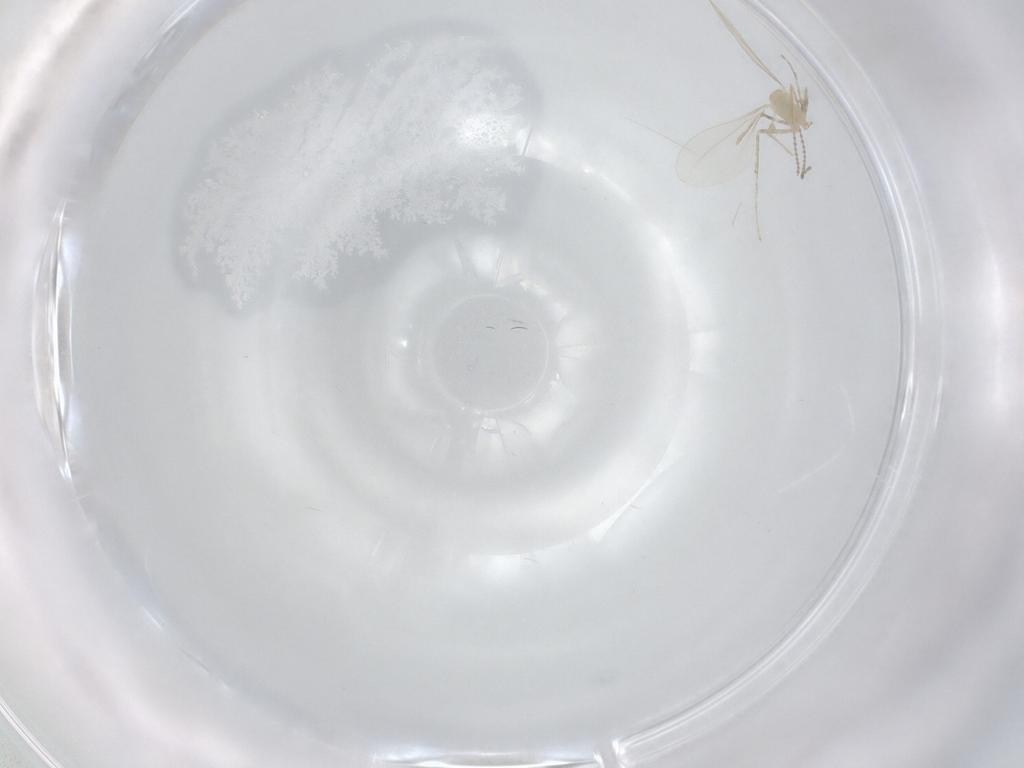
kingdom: Animalia
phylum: Arthropoda
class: Insecta
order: Diptera
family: Cecidomyiidae
